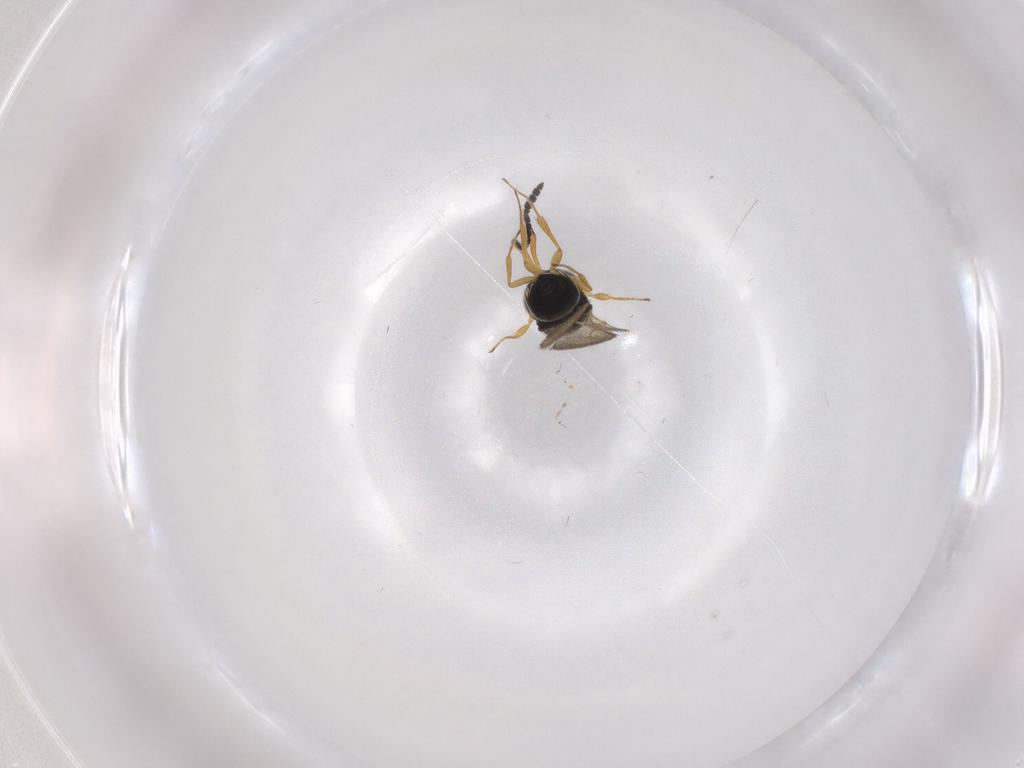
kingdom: Animalia
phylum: Arthropoda
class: Insecta
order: Hymenoptera
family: Scelionidae
